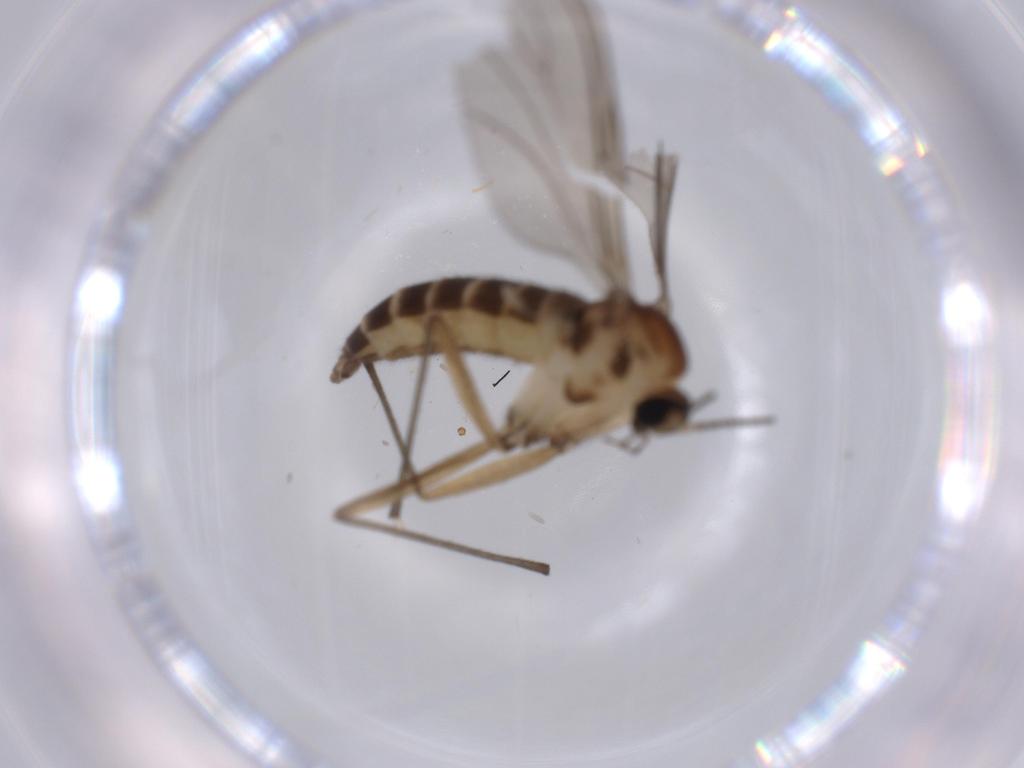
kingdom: Animalia
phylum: Arthropoda
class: Insecta
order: Diptera
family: Sciaridae
